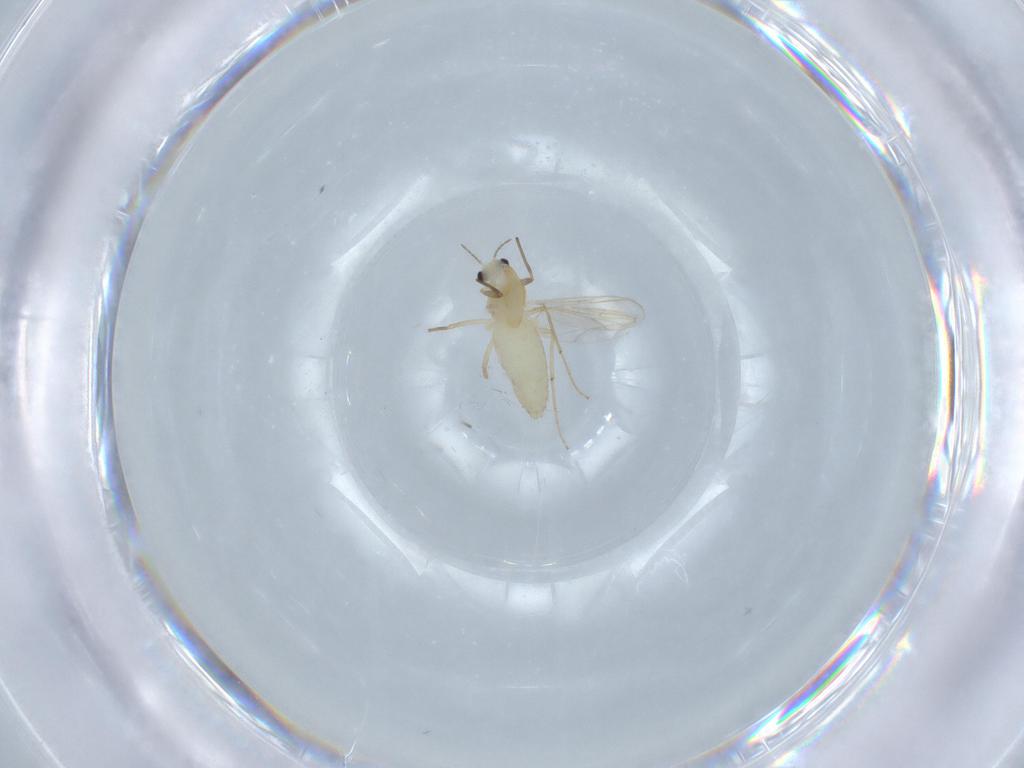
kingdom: Animalia
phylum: Arthropoda
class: Insecta
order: Diptera
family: Chironomidae
